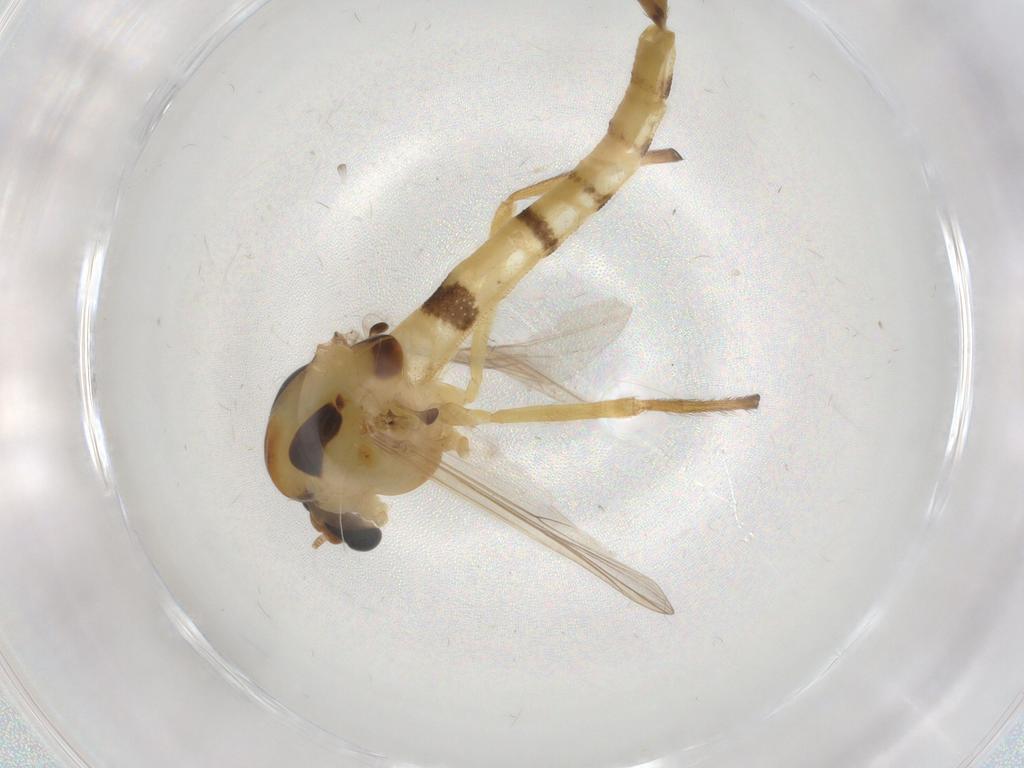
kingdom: Animalia
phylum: Arthropoda
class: Insecta
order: Diptera
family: Chironomidae
